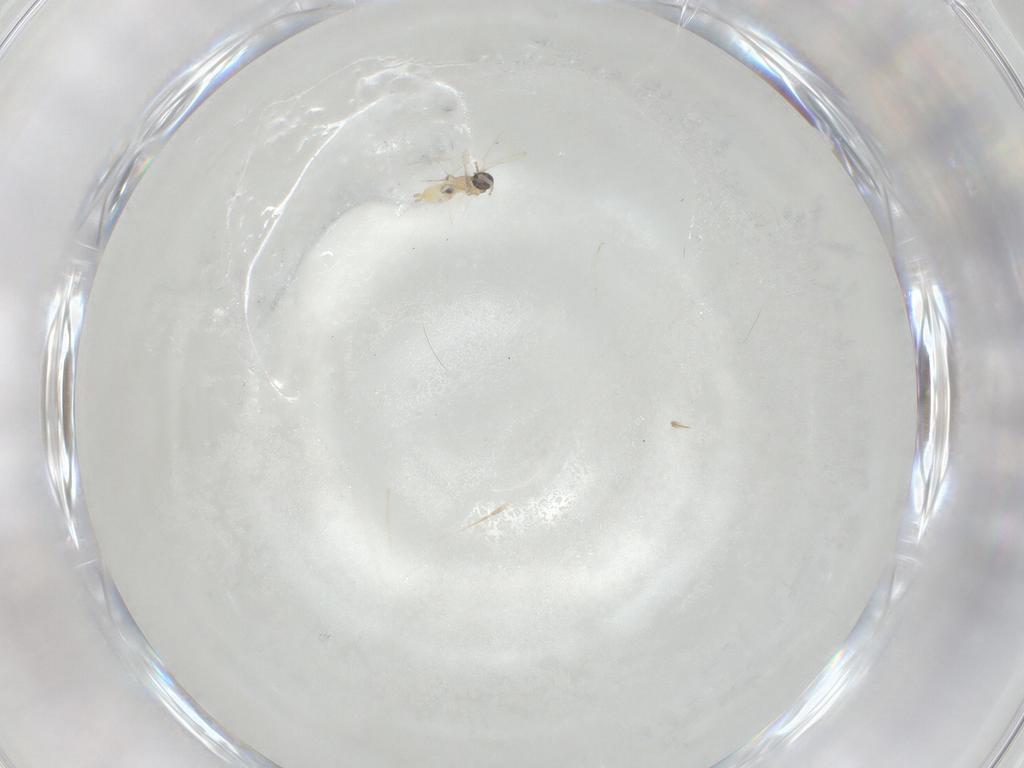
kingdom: Animalia
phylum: Arthropoda
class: Insecta
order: Diptera
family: Cecidomyiidae
